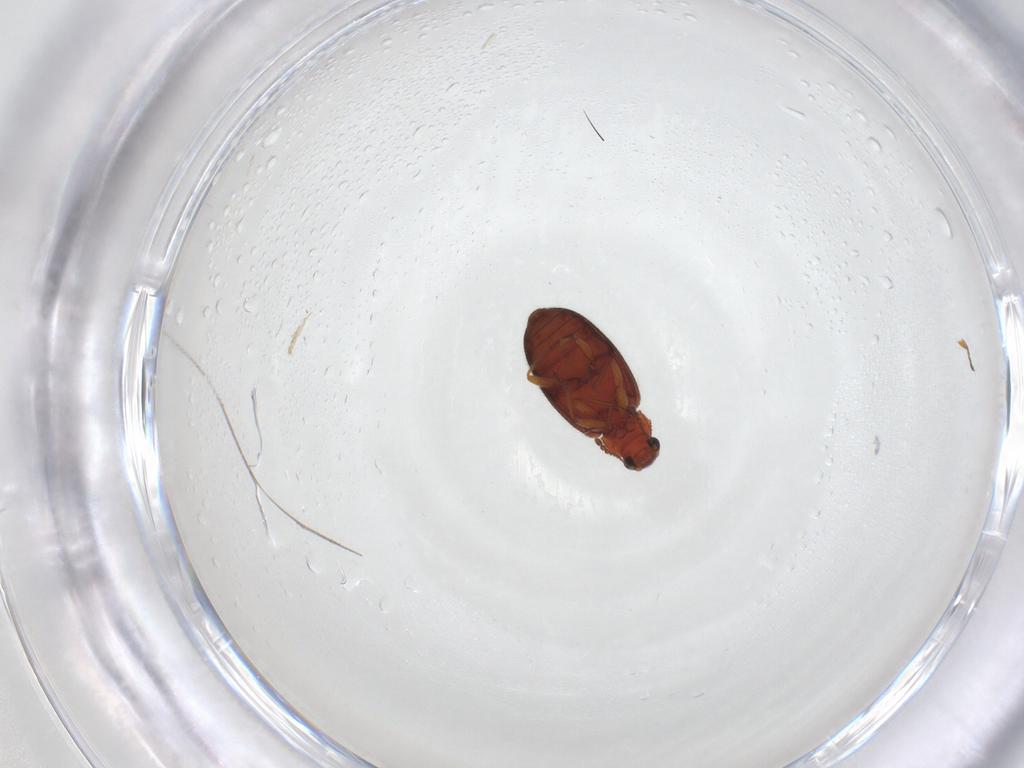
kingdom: Animalia
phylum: Arthropoda
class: Insecta
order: Coleoptera
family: Latridiidae
